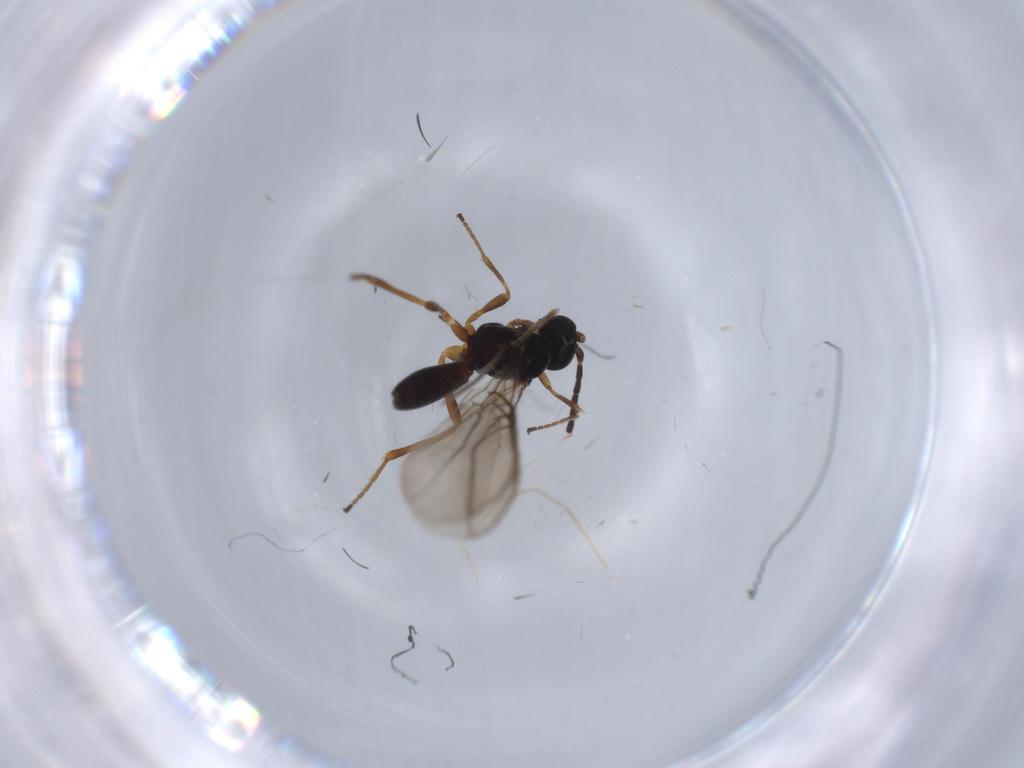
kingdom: Animalia
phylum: Arthropoda
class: Insecta
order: Hymenoptera
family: Braconidae
